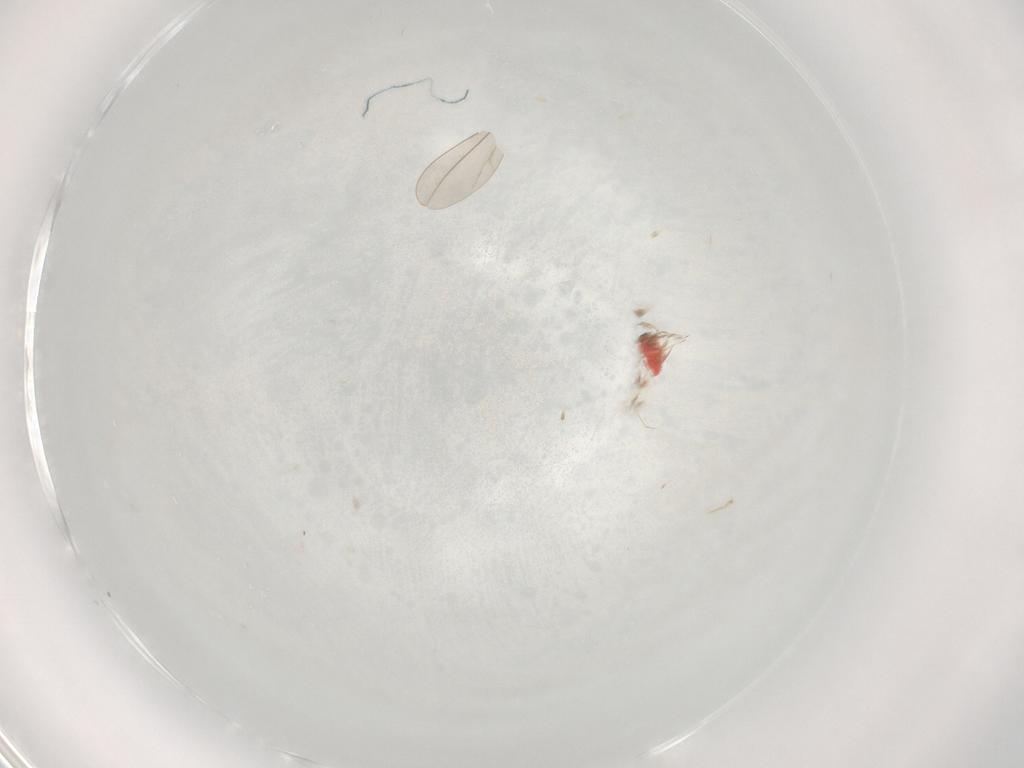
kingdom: Animalia
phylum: Arthropoda
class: Insecta
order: Hymenoptera
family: Trichogrammatidae
